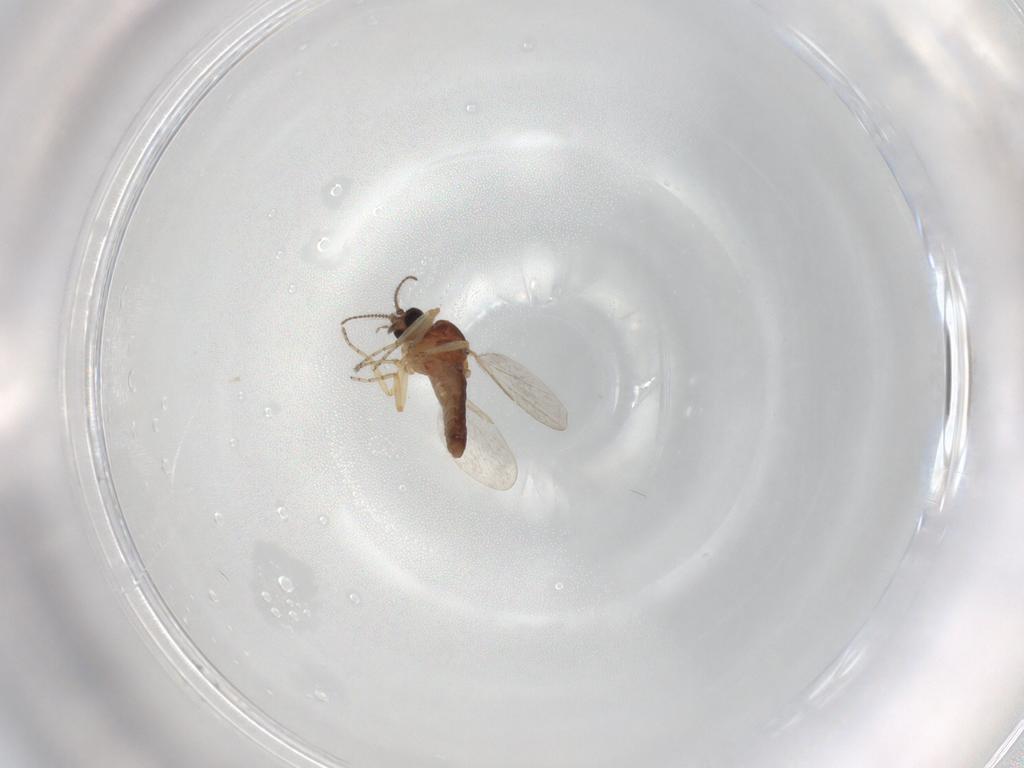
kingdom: Animalia
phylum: Arthropoda
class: Insecta
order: Diptera
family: Ceratopogonidae
